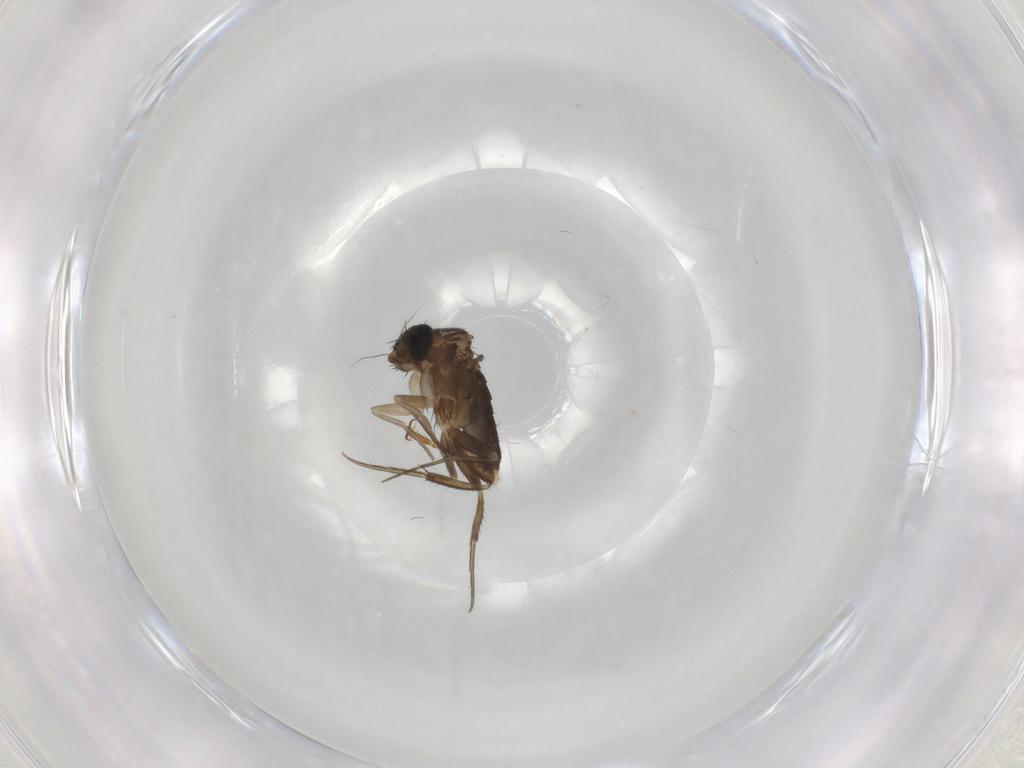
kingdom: Animalia
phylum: Arthropoda
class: Insecta
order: Diptera
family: Phoridae
